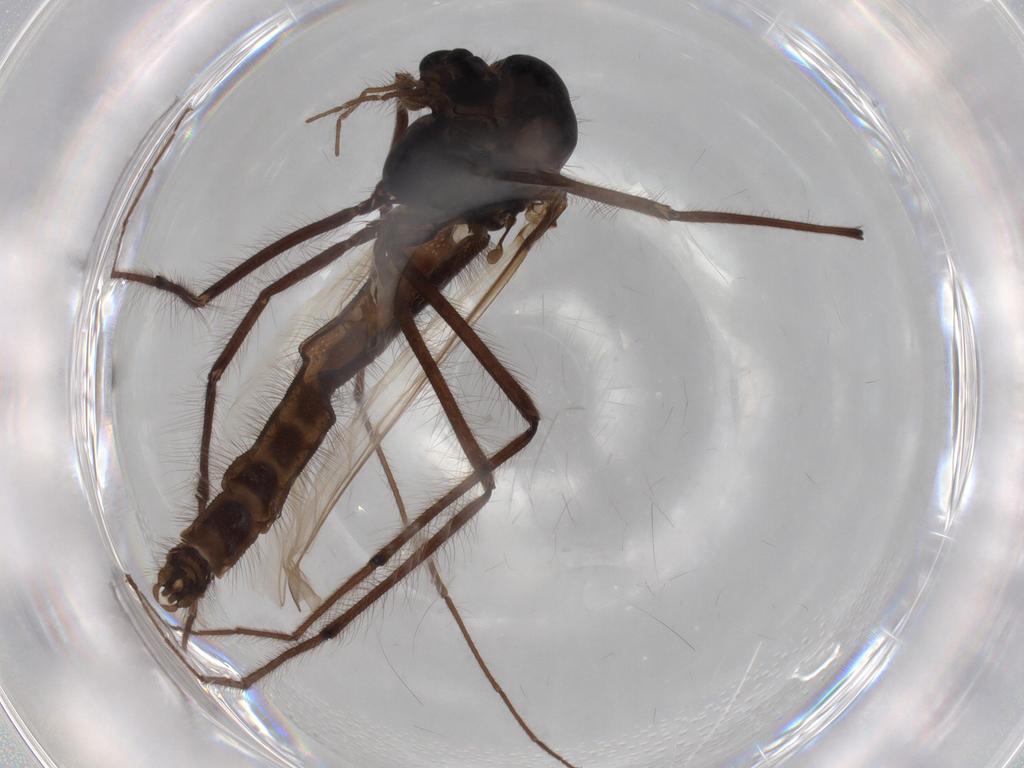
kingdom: Animalia
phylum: Arthropoda
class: Insecta
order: Diptera
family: Chironomidae
